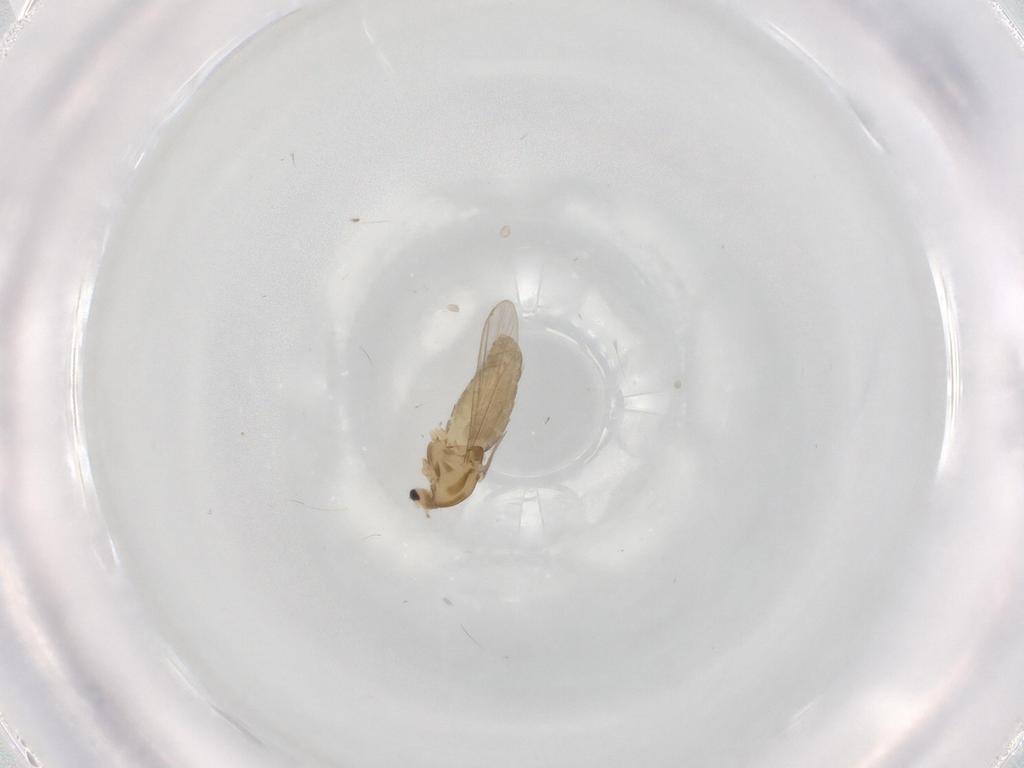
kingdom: Animalia
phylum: Arthropoda
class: Insecta
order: Diptera
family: Chironomidae
